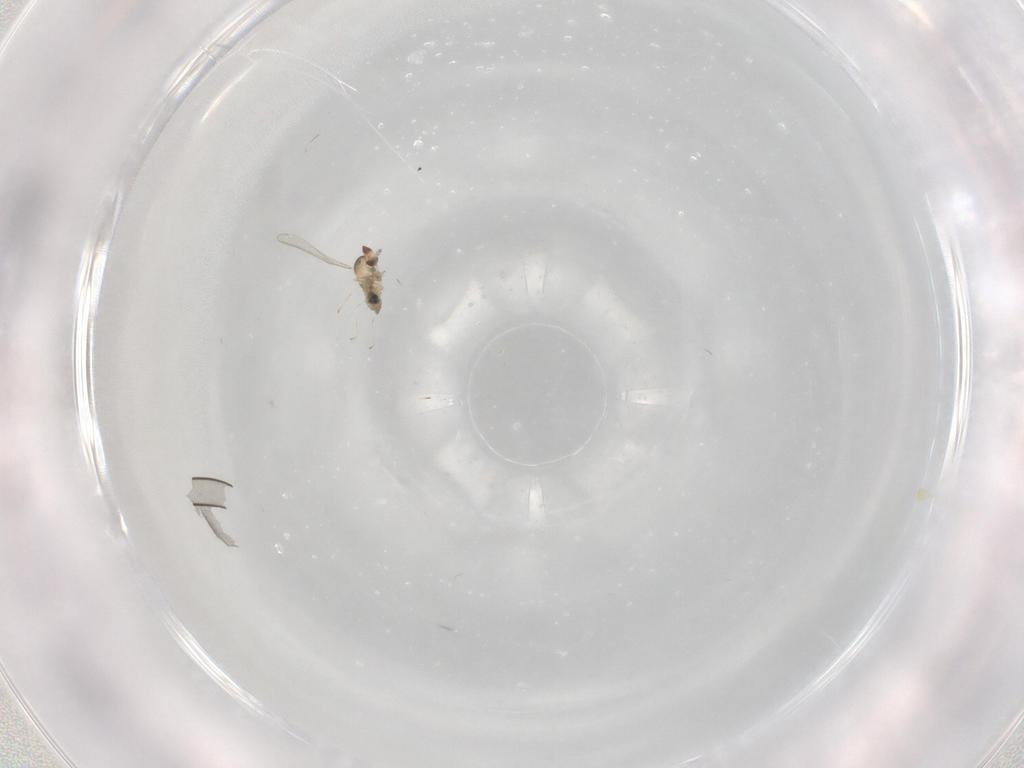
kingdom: Animalia
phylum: Arthropoda
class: Insecta
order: Diptera
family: Cecidomyiidae
